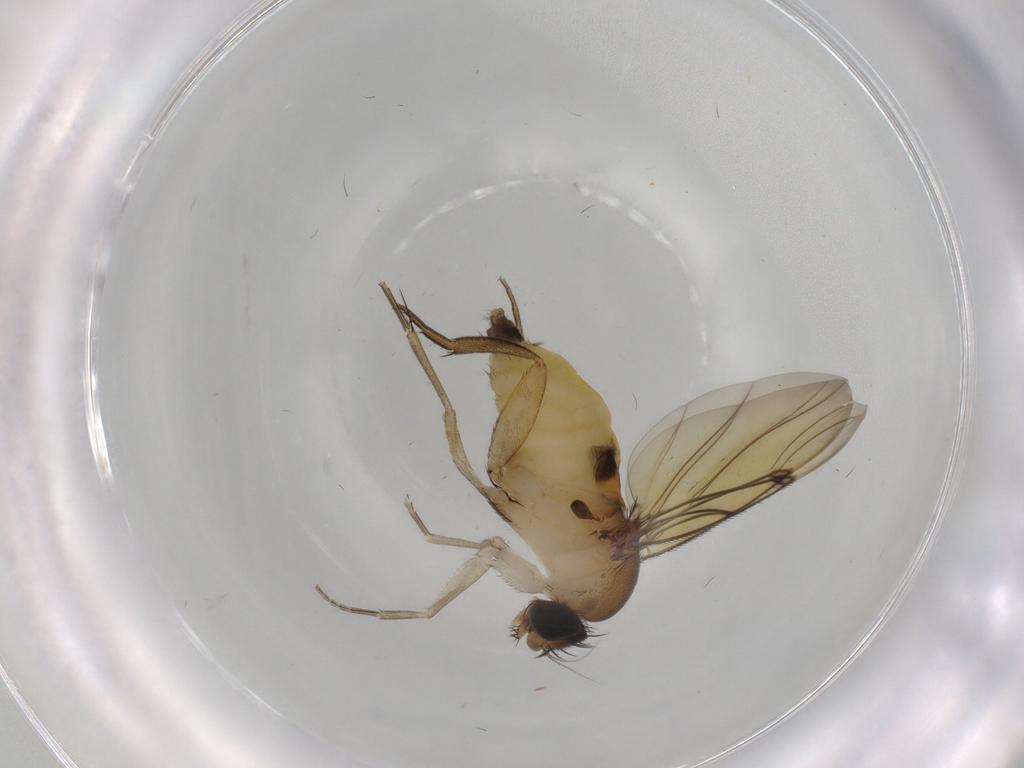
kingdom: Animalia
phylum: Arthropoda
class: Insecta
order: Diptera
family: Phoridae
